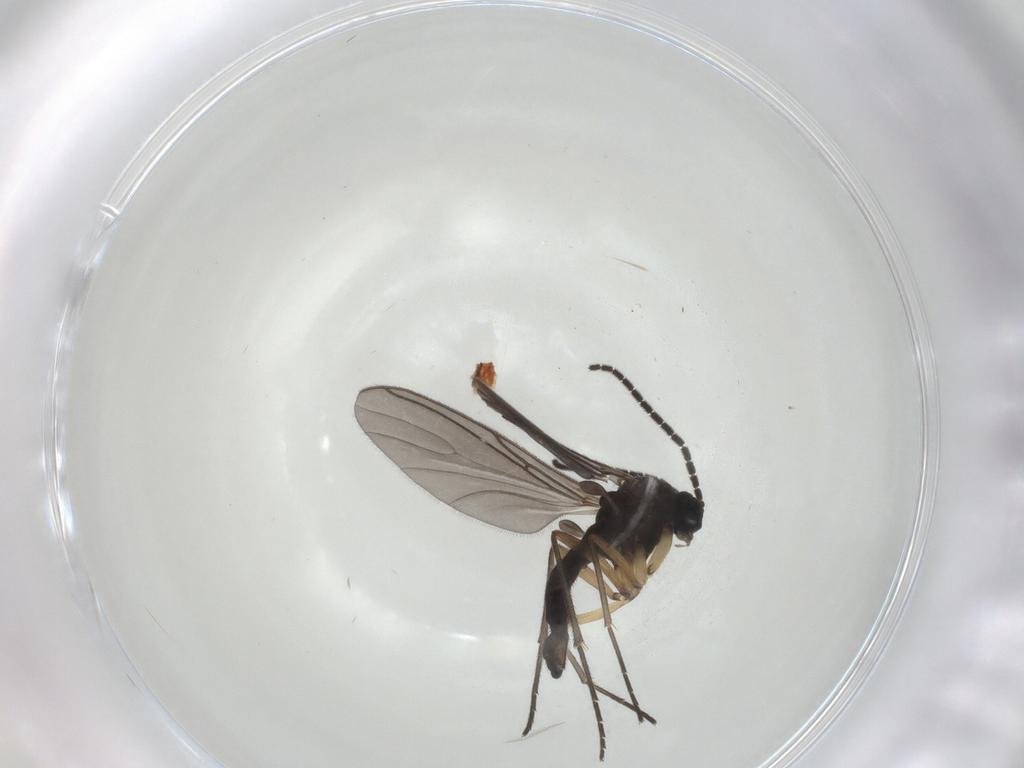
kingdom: Animalia
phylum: Arthropoda
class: Insecta
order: Diptera
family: Sciaridae
